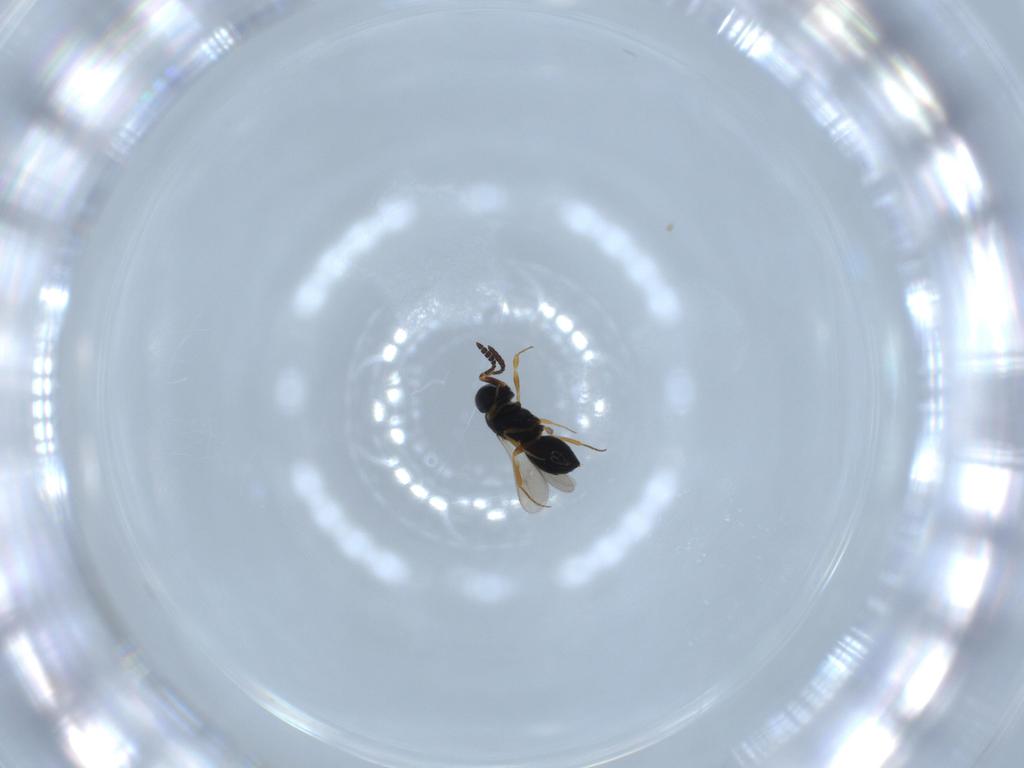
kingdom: Animalia
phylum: Arthropoda
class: Insecta
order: Hymenoptera
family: Scelionidae
